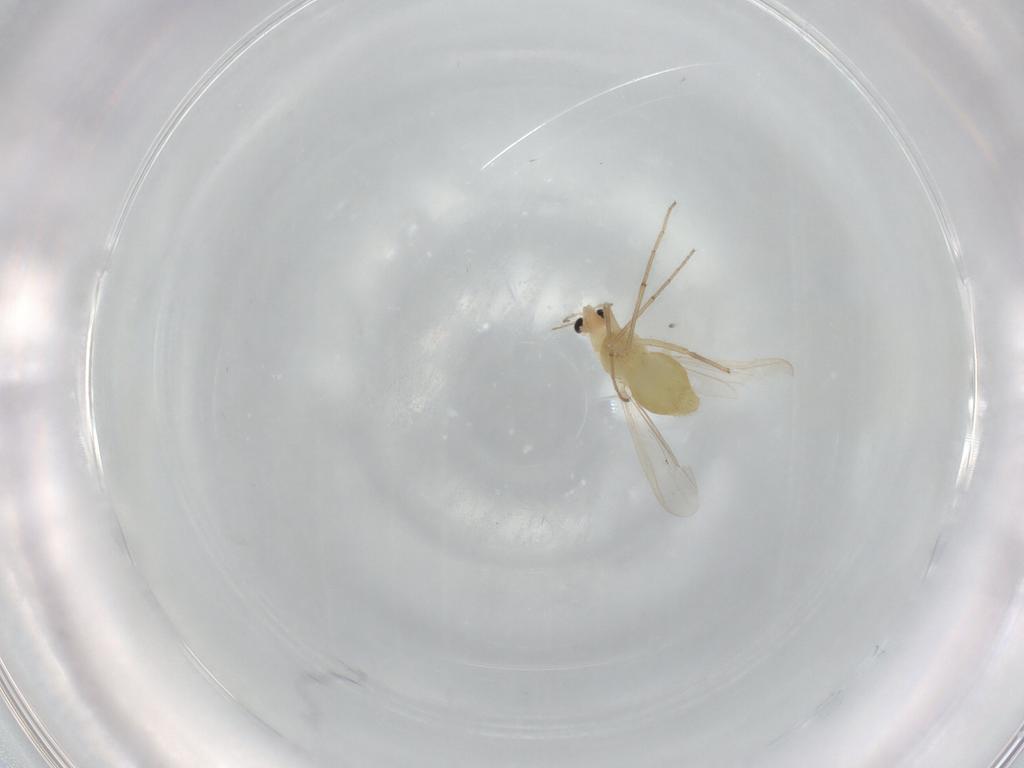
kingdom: Animalia
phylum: Arthropoda
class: Insecta
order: Diptera
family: Chironomidae
